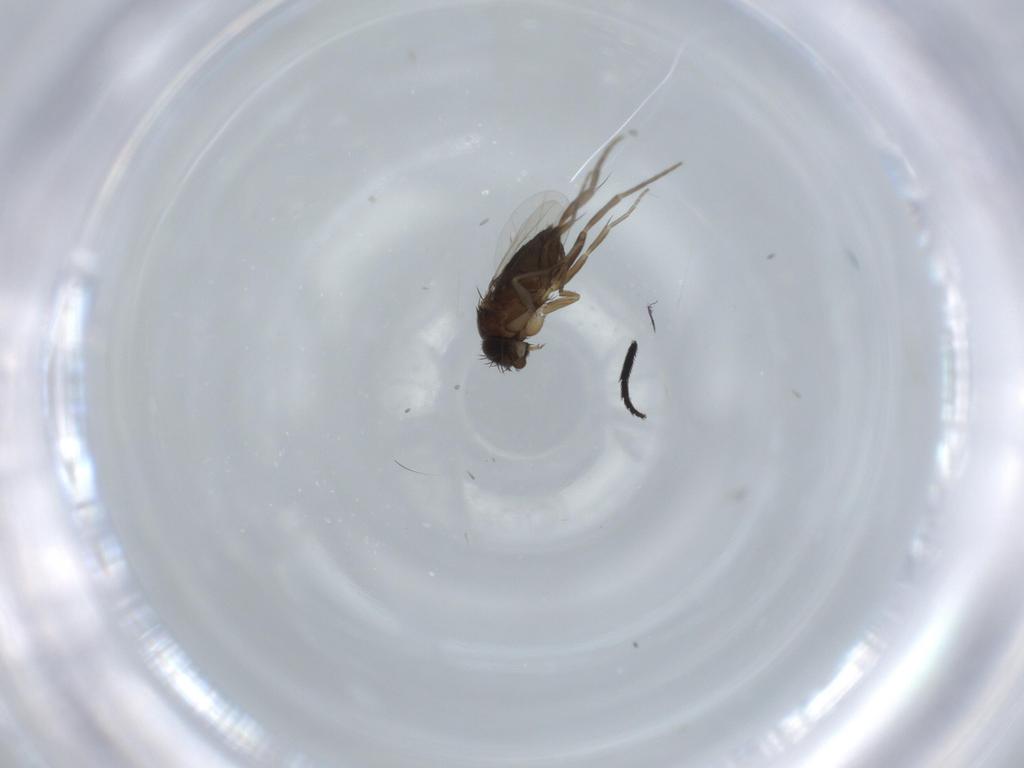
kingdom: Animalia
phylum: Arthropoda
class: Insecta
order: Diptera
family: Phoridae
